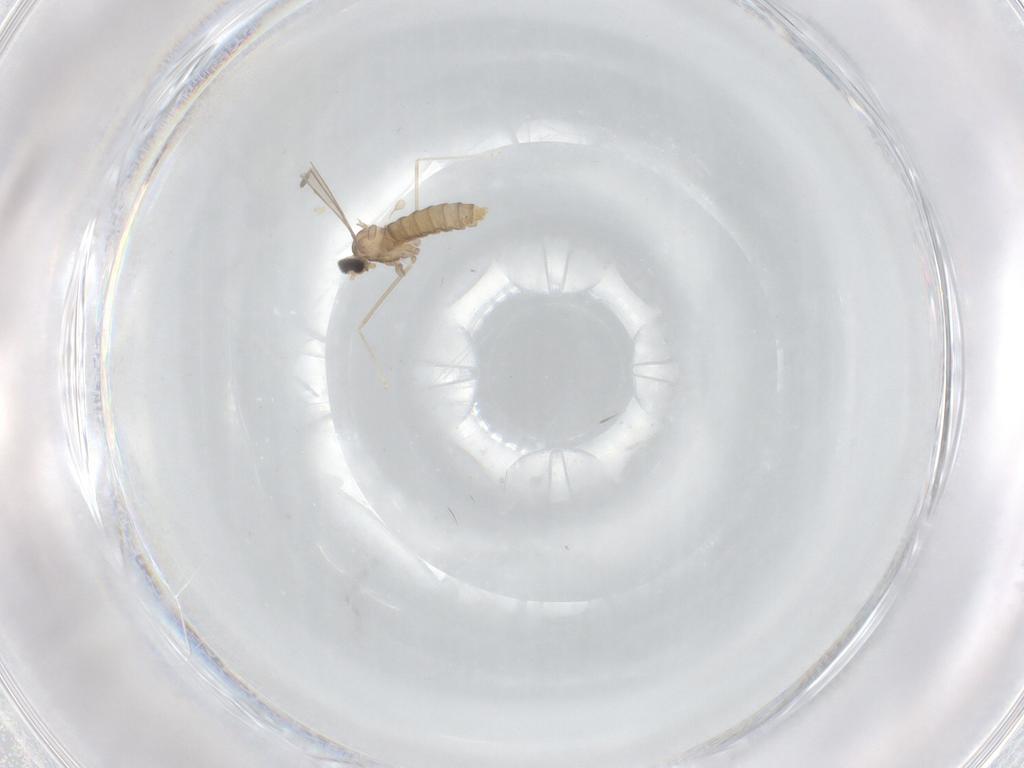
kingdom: Animalia
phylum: Arthropoda
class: Insecta
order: Diptera
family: Cecidomyiidae
